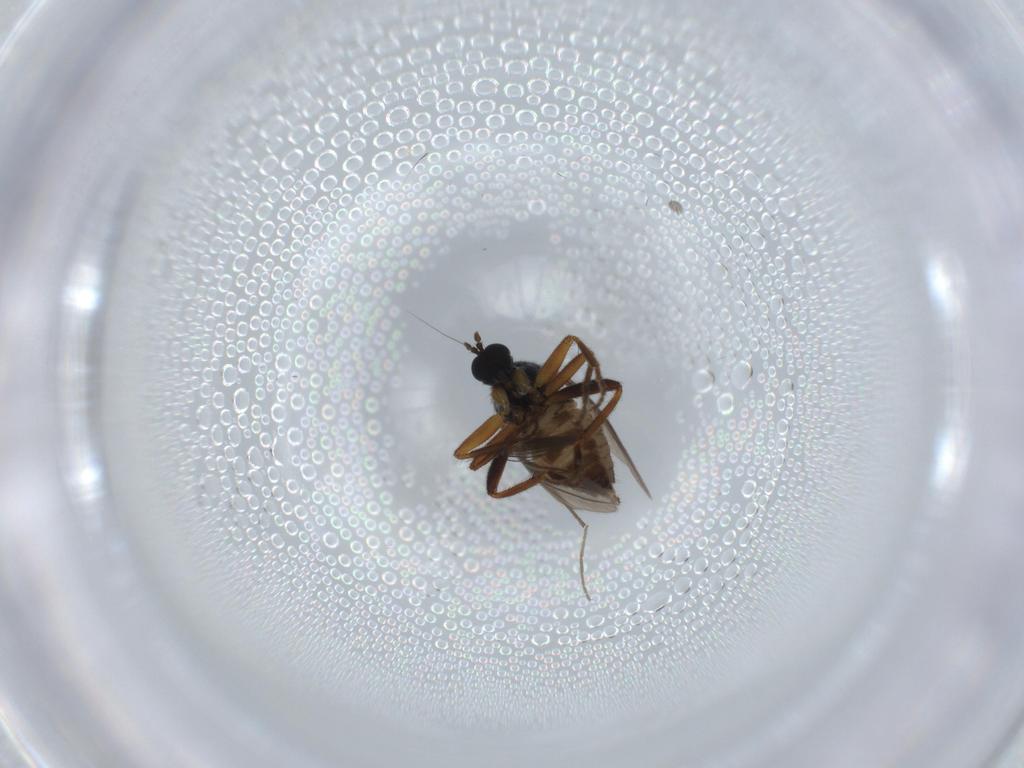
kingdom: Animalia
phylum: Arthropoda
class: Insecta
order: Diptera
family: Hybotidae
